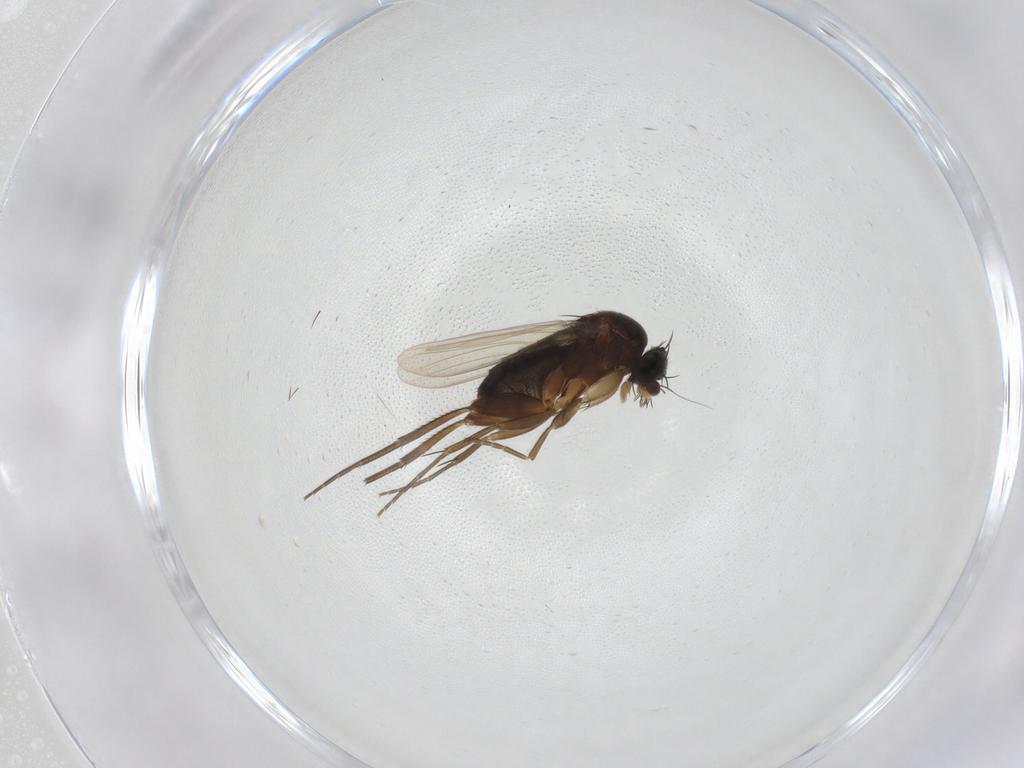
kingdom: Animalia
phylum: Arthropoda
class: Insecta
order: Diptera
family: Phoridae
